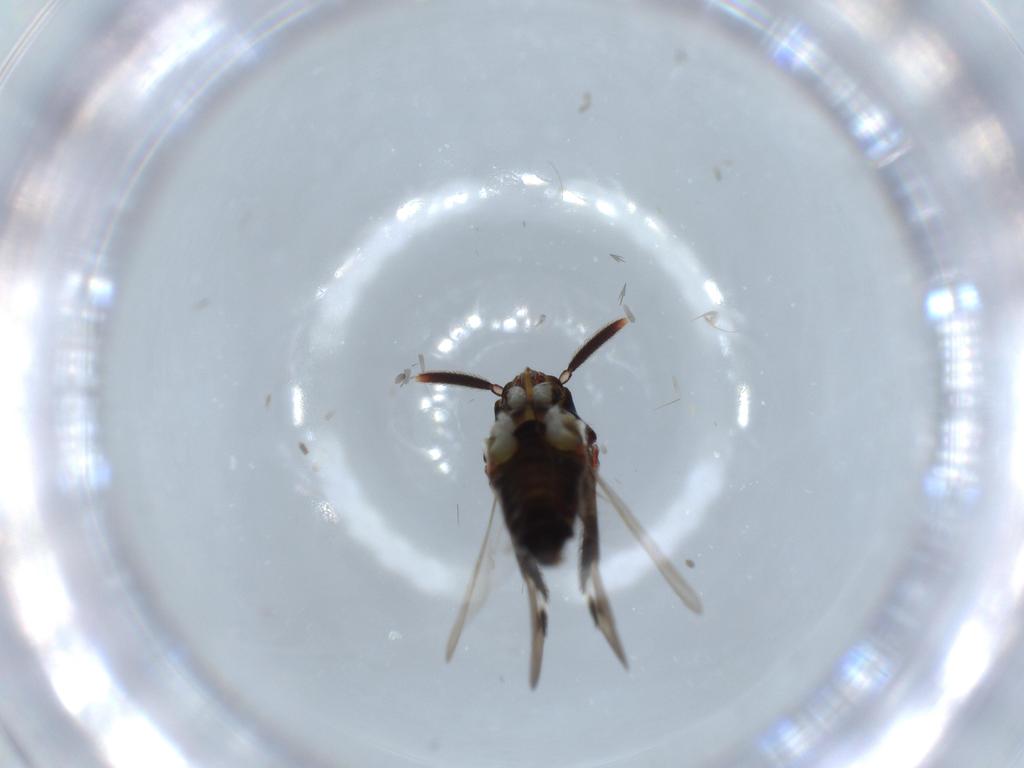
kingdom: Animalia
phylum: Arthropoda
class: Insecta
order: Hemiptera
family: Miridae
